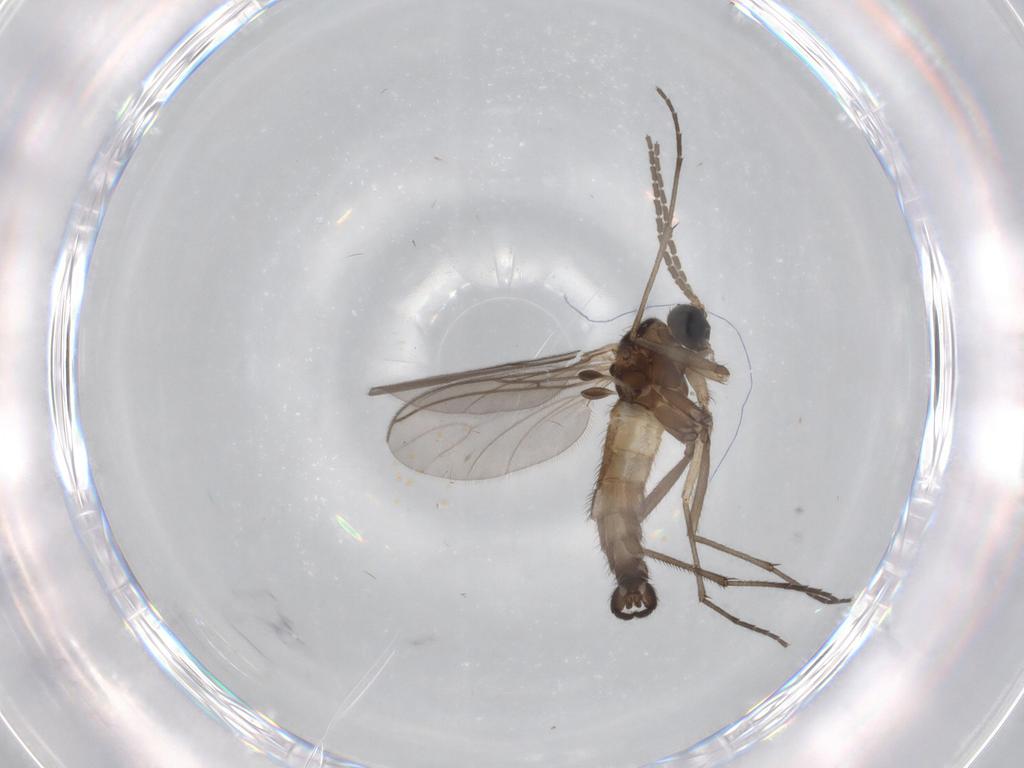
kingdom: Animalia
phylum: Arthropoda
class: Insecta
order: Diptera
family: Sciaridae
